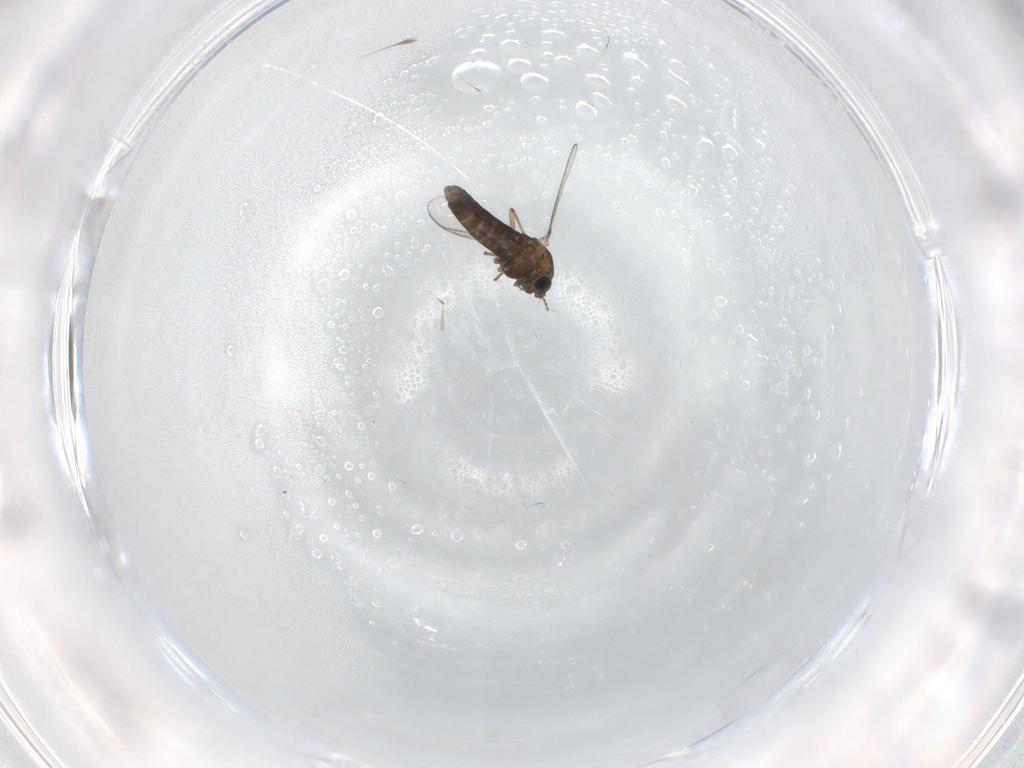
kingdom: Animalia
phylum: Arthropoda
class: Insecta
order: Diptera
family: Chironomidae
